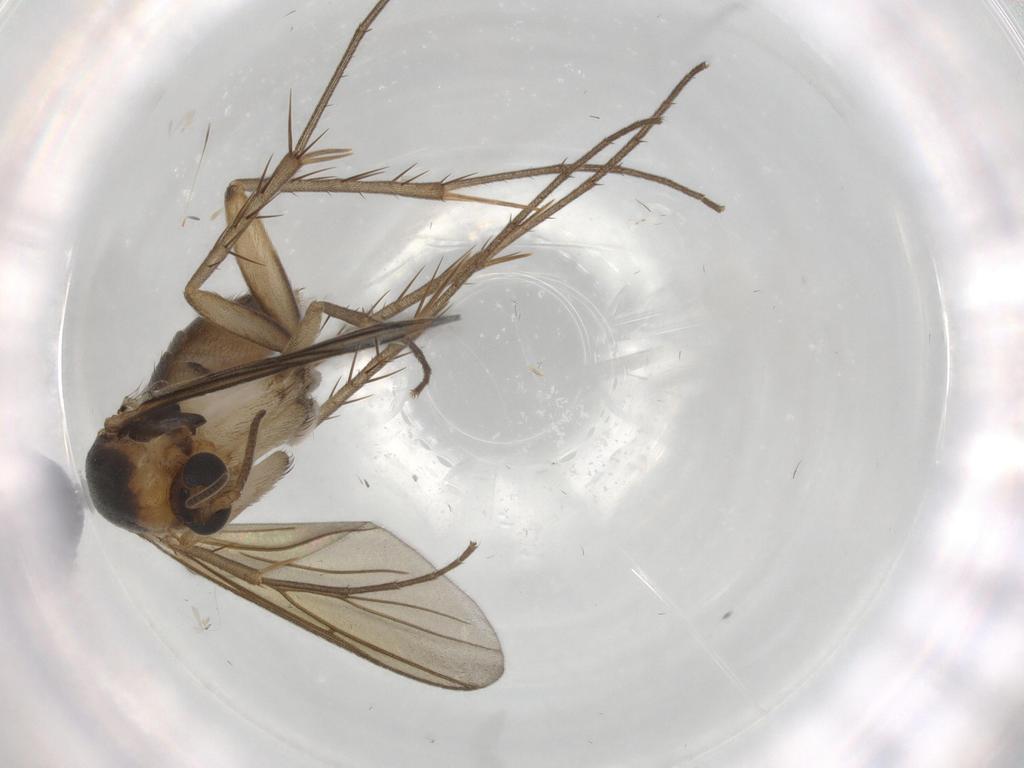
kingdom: Animalia
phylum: Arthropoda
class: Insecta
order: Diptera
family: Mycetophilidae
